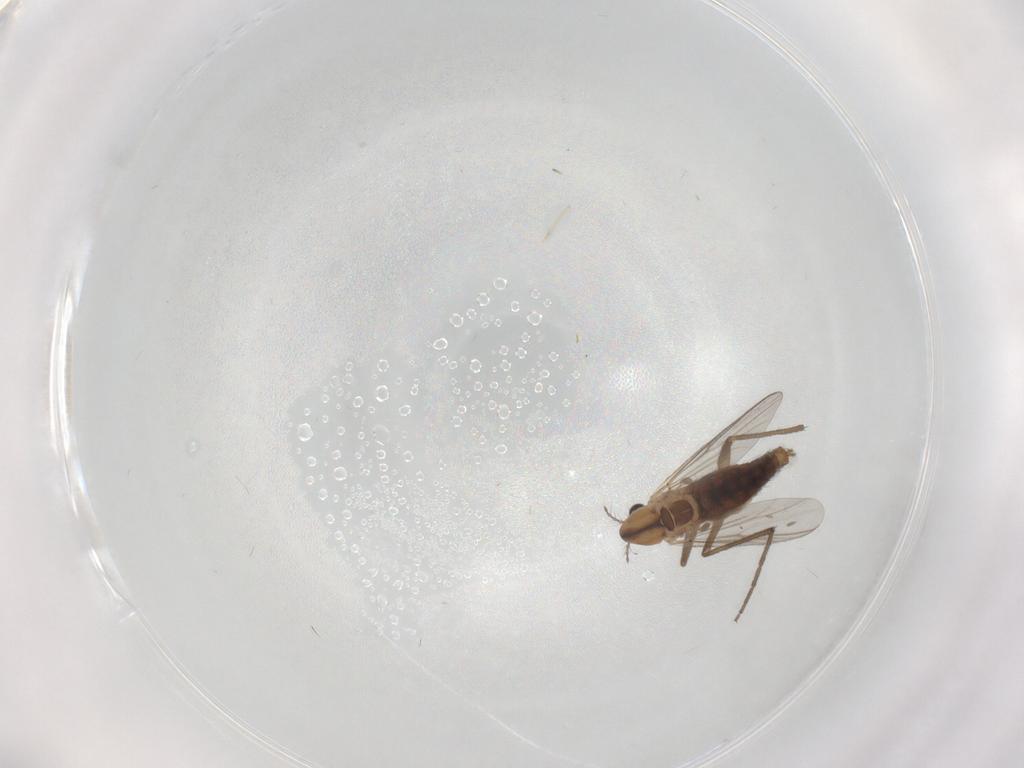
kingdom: Animalia
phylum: Arthropoda
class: Insecta
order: Diptera
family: Chironomidae
